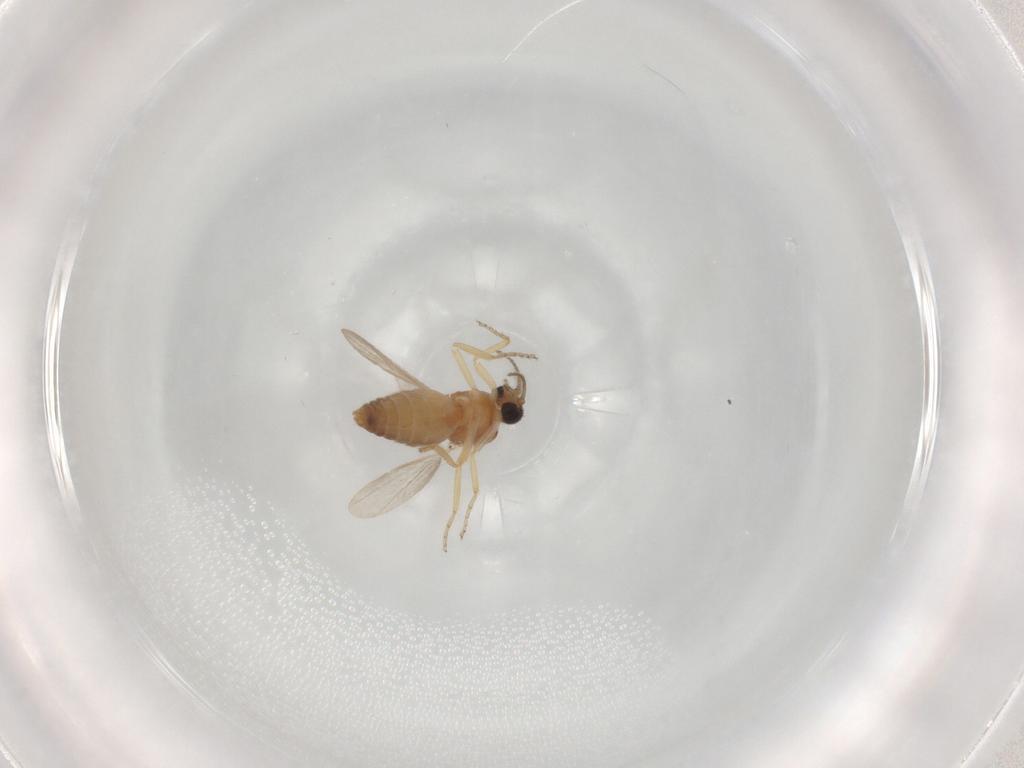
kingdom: Animalia
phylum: Arthropoda
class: Insecta
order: Diptera
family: Ceratopogonidae
